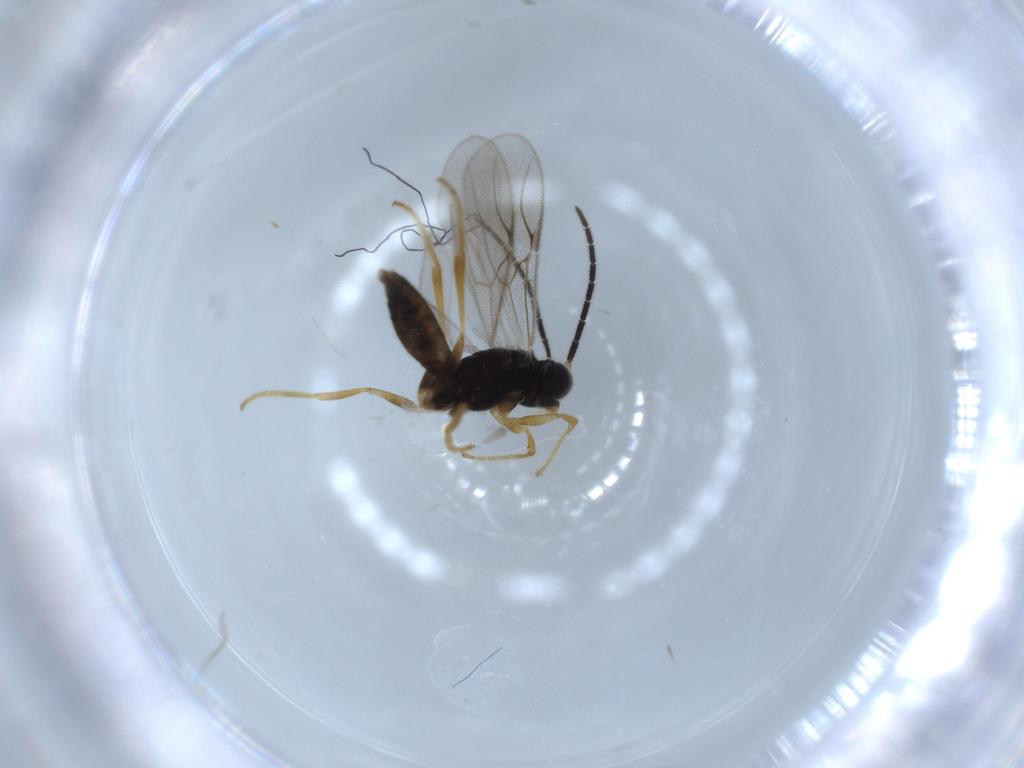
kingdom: Animalia
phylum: Arthropoda
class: Insecta
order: Hymenoptera
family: Dryinidae
